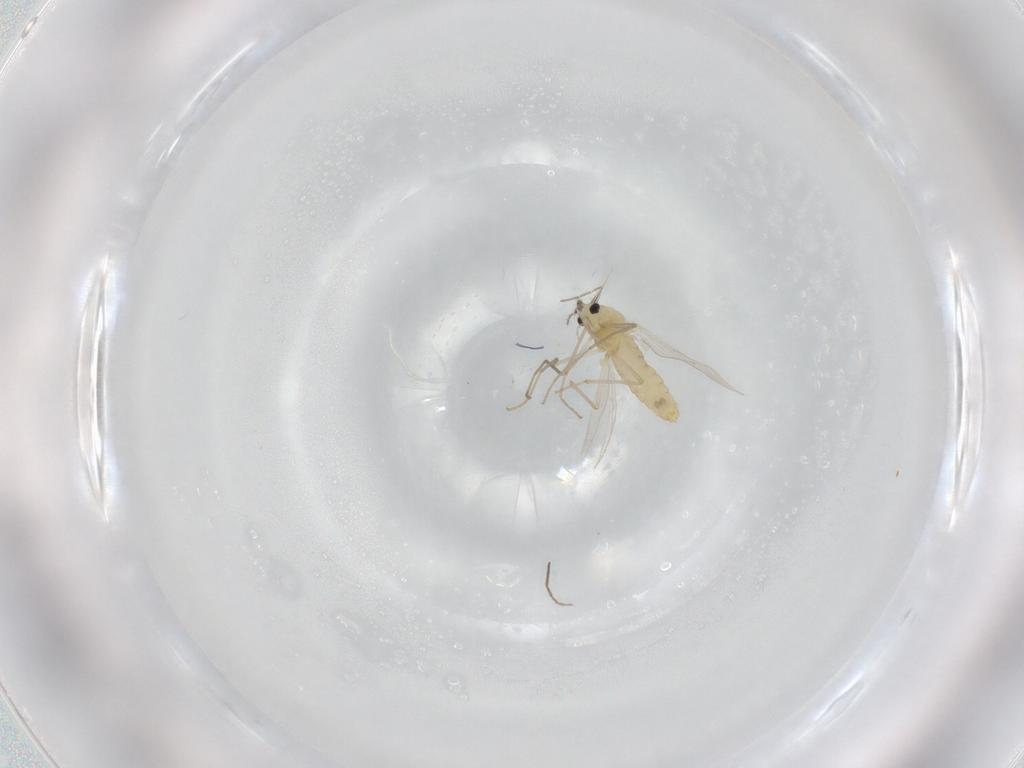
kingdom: Animalia
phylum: Arthropoda
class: Insecta
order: Diptera
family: Chironomidae
